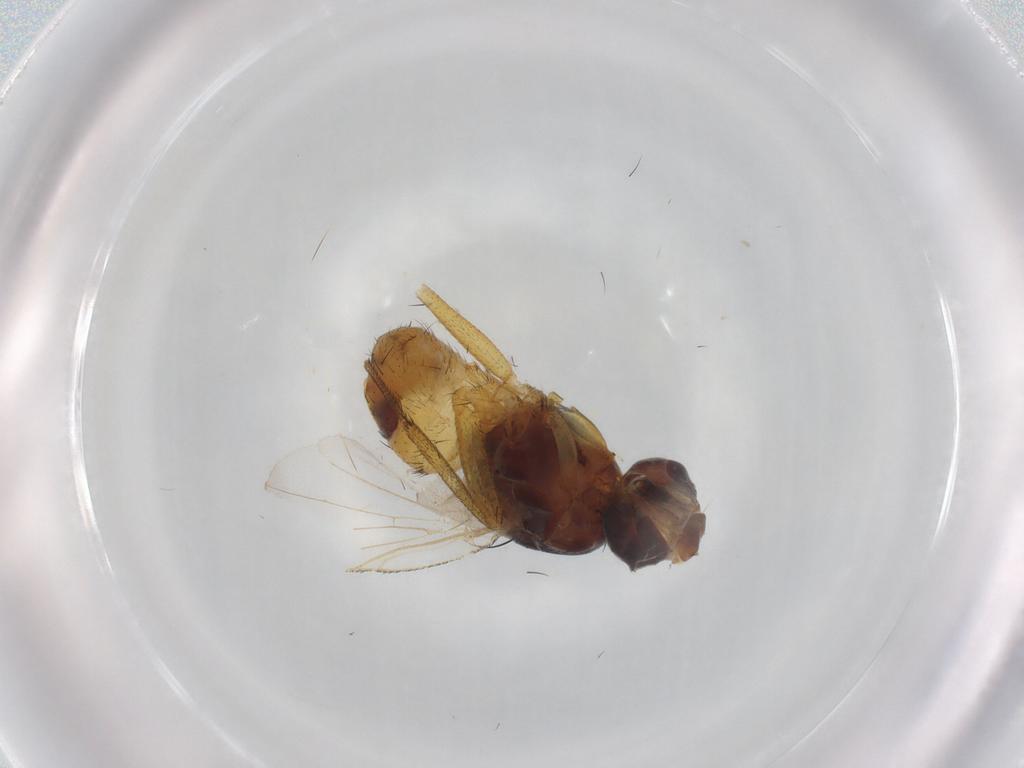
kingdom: Animalia
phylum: Arthropoda
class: Insecta
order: Diptera
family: Muscidae
